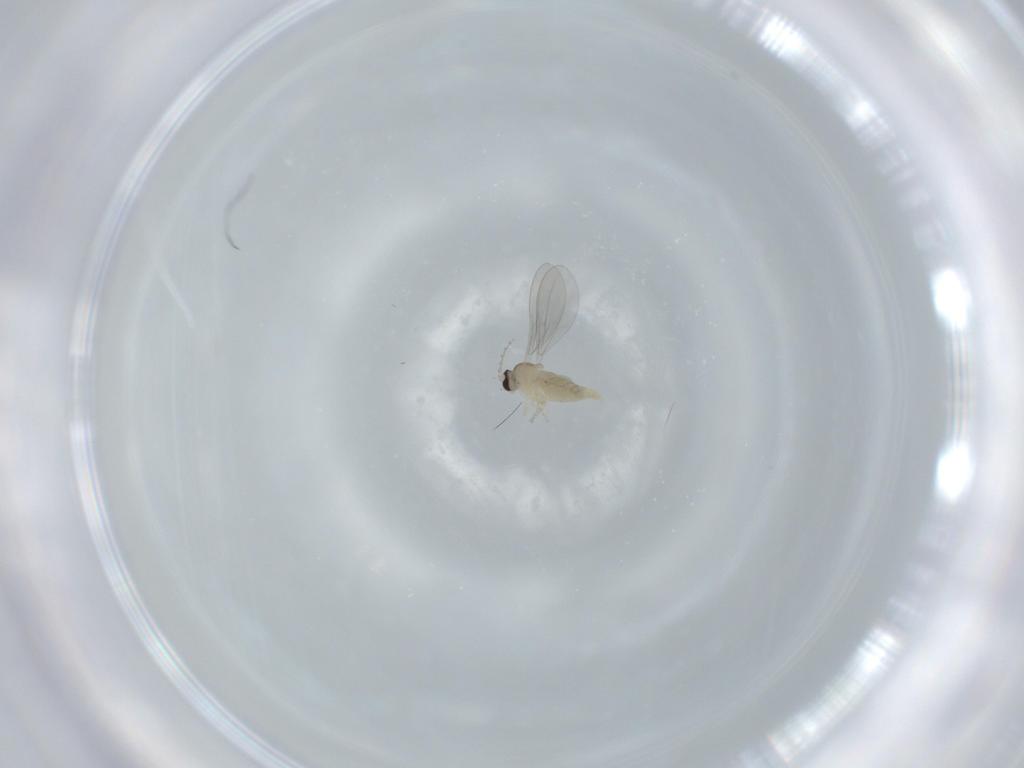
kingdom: Animalia
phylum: Arthropoda
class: Insecta
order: Diptera
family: Cecidomyiidae
